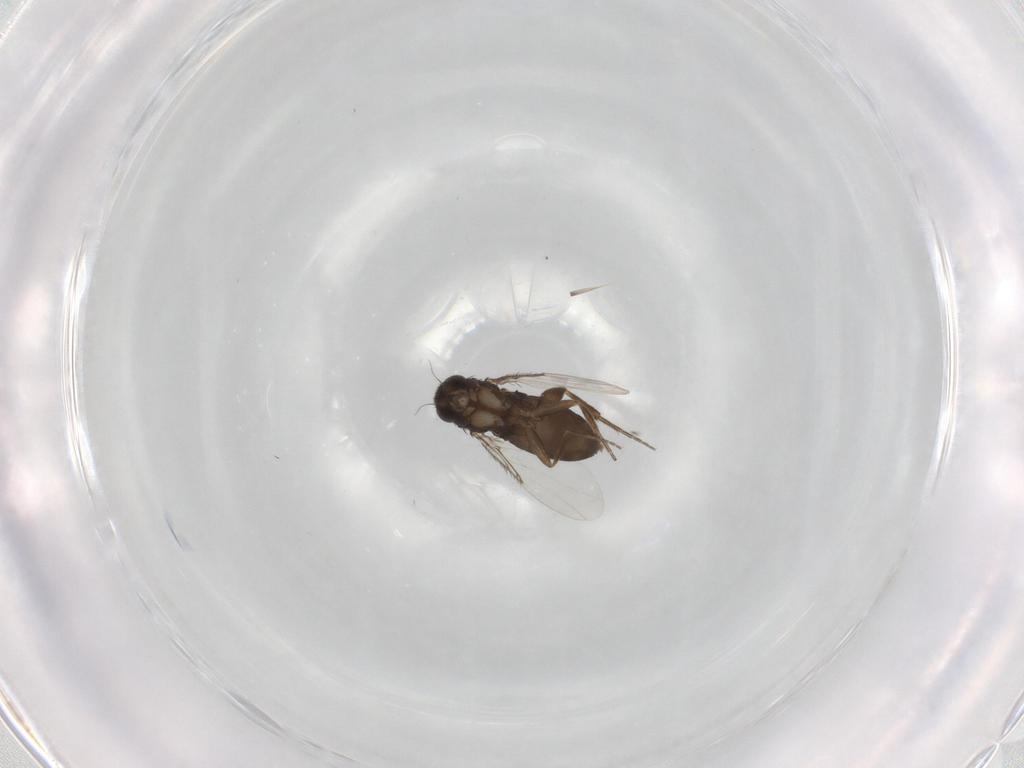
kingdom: Animalia
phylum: Arthropoda
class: Insecta
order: Diptera
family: Phoridae
